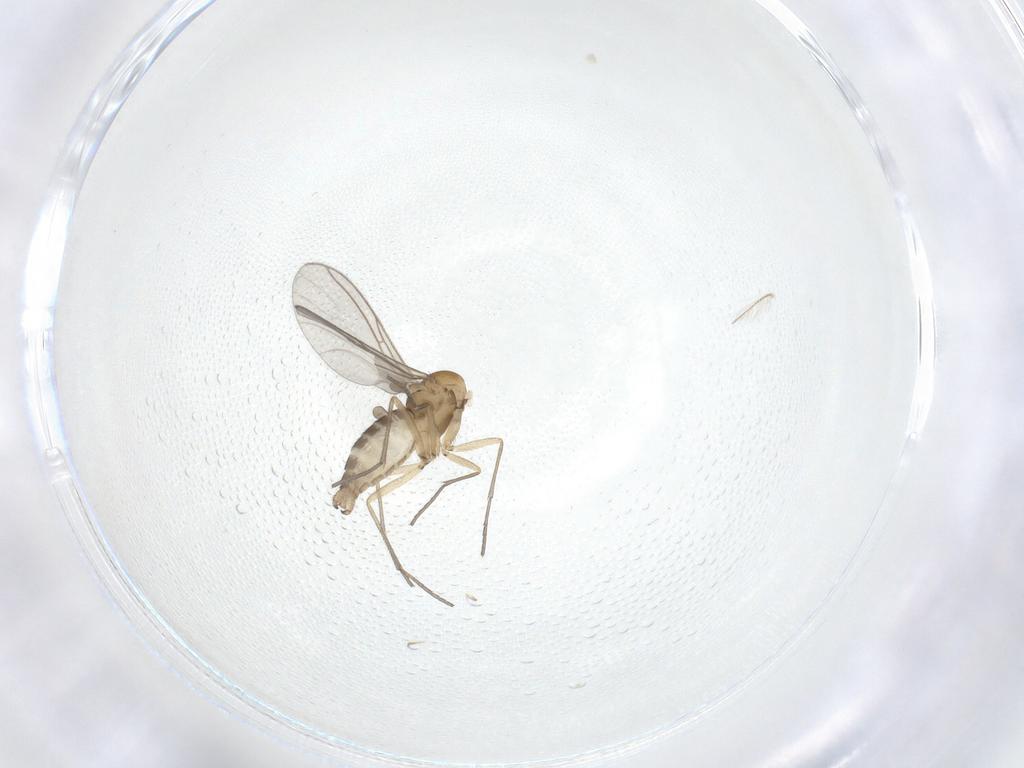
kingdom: Animalia
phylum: Arthropoda
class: Insecta
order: Diptera
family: Sciaridae
